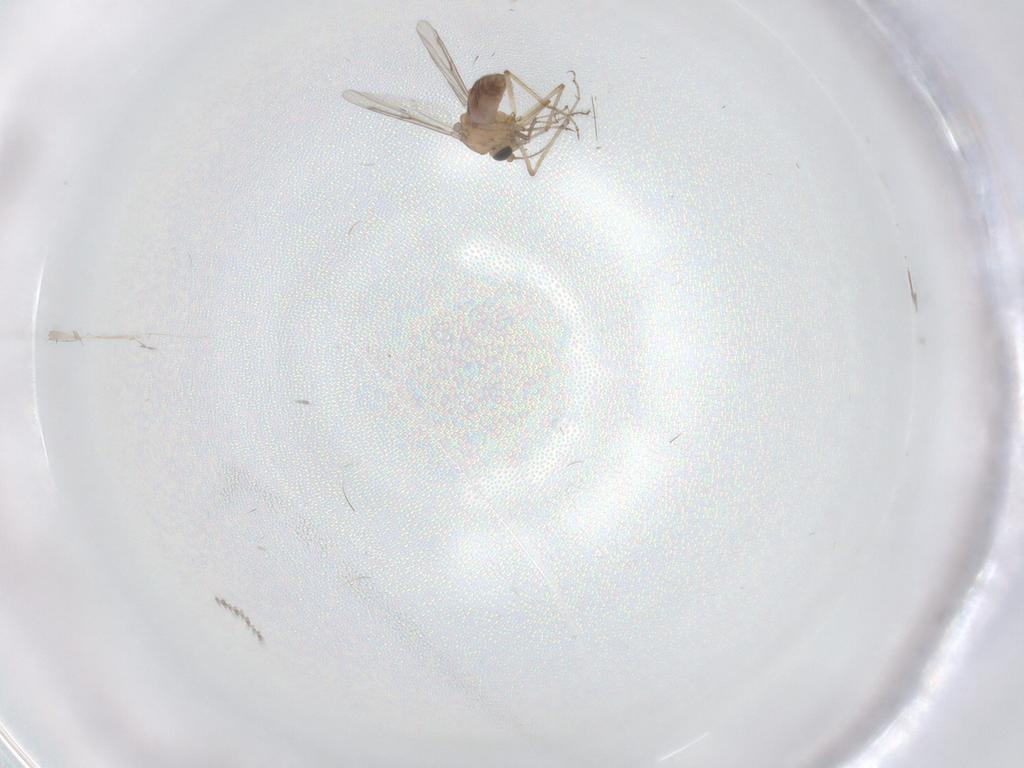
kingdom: Animalia
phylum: Arthropoda
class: Insecta
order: Diptera
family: Cecidomyiidae
